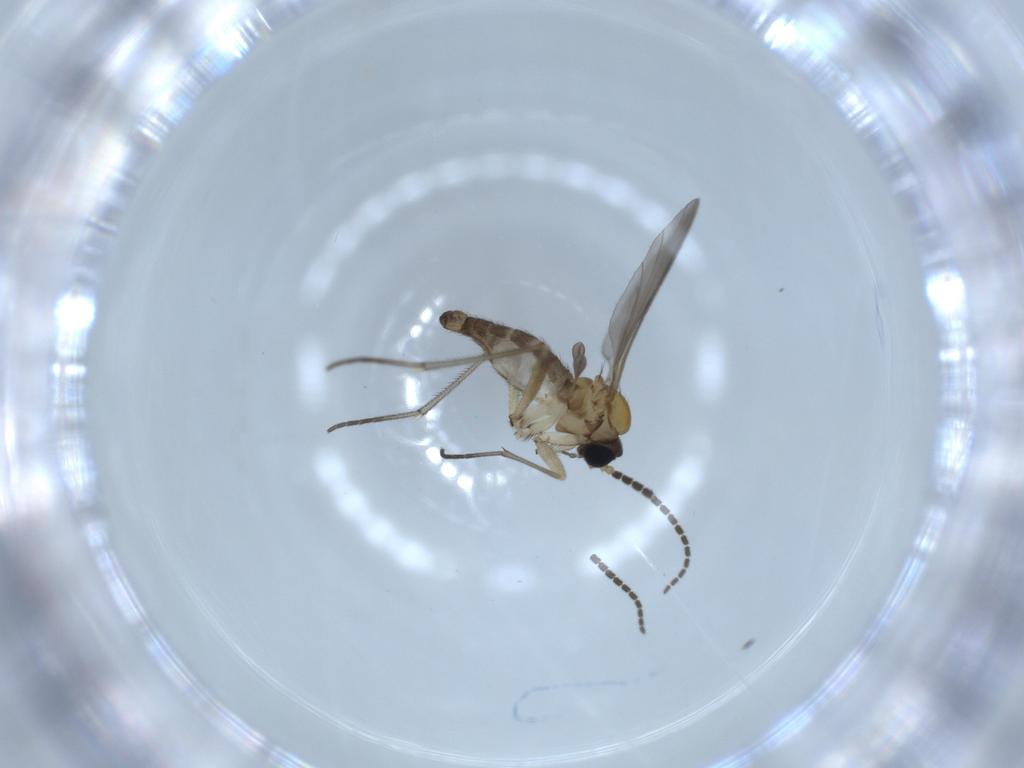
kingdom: Animalia
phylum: Arthropoda
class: Insecta
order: Diptera
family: Sciaridae
